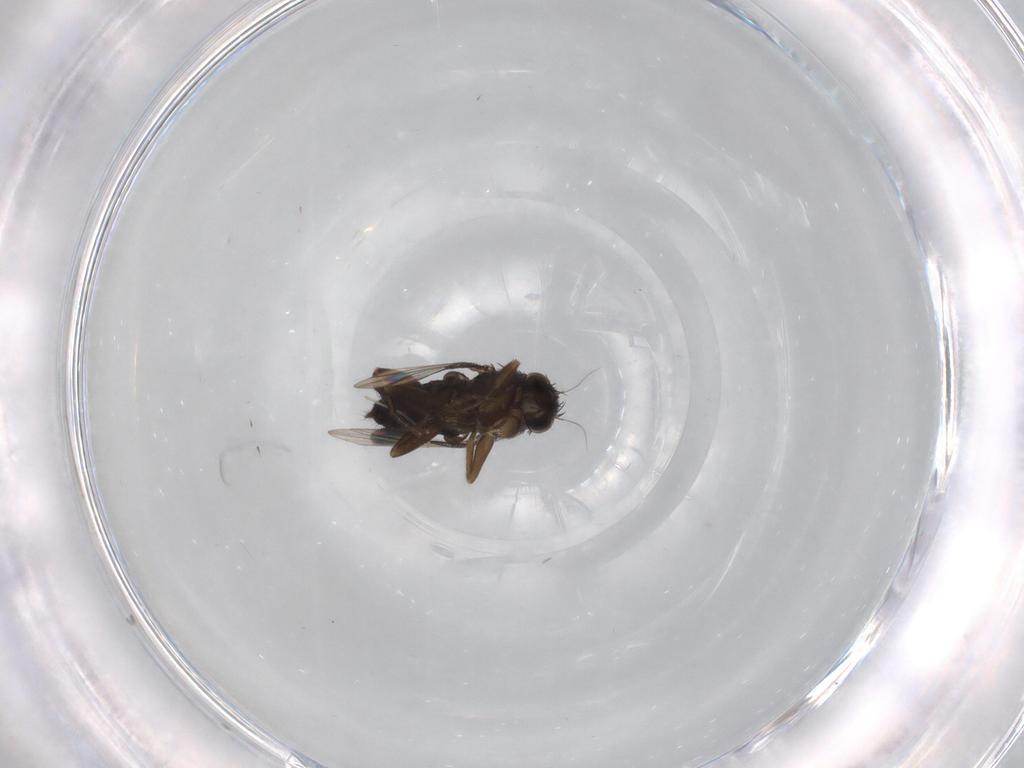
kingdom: Animalia
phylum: Arthropoda
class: Insecta
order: Diptera
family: Phoridae
